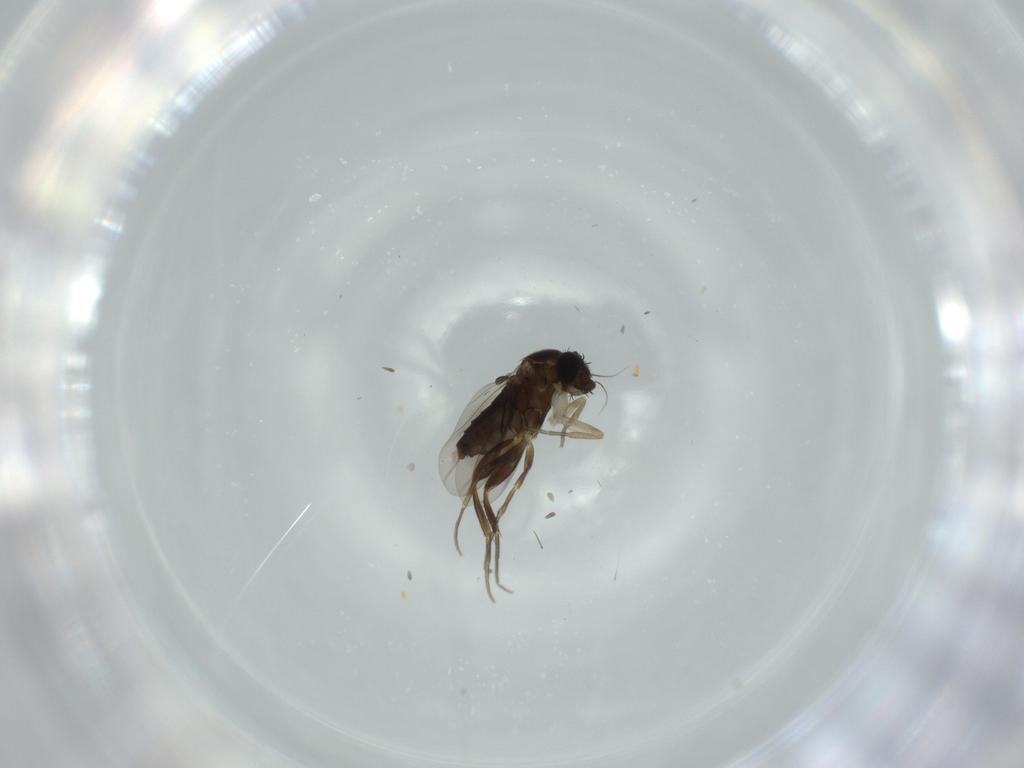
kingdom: Animalia
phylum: Arthropoda
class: Insecta
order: Diptera
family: Phoridae
